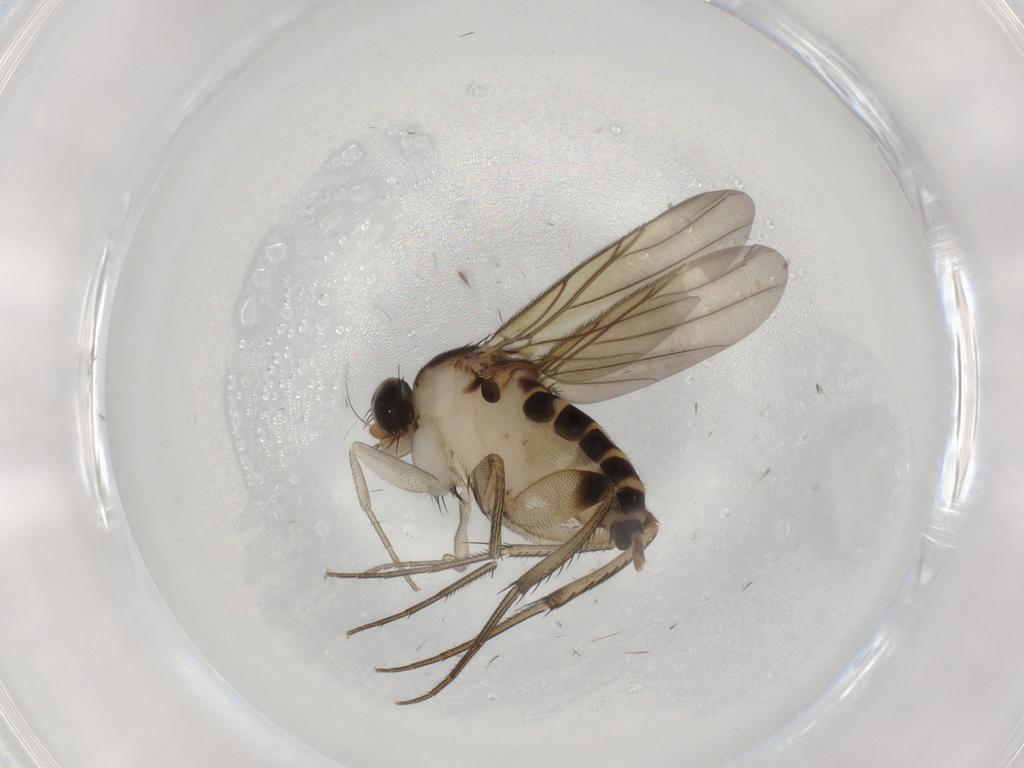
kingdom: Animalia
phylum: Arthropoda
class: Insecta
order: Diptera
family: Phoridae
